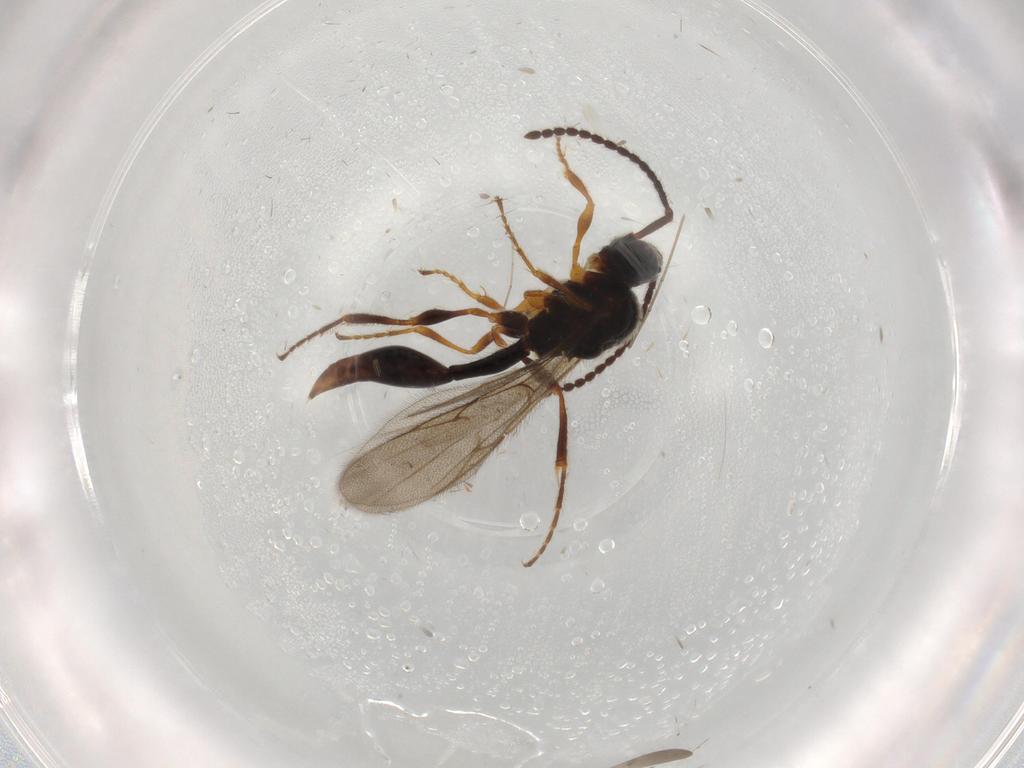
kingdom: Animalia
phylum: Arthropoda
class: Insecta
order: Hymenoptera
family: Diapriidae
